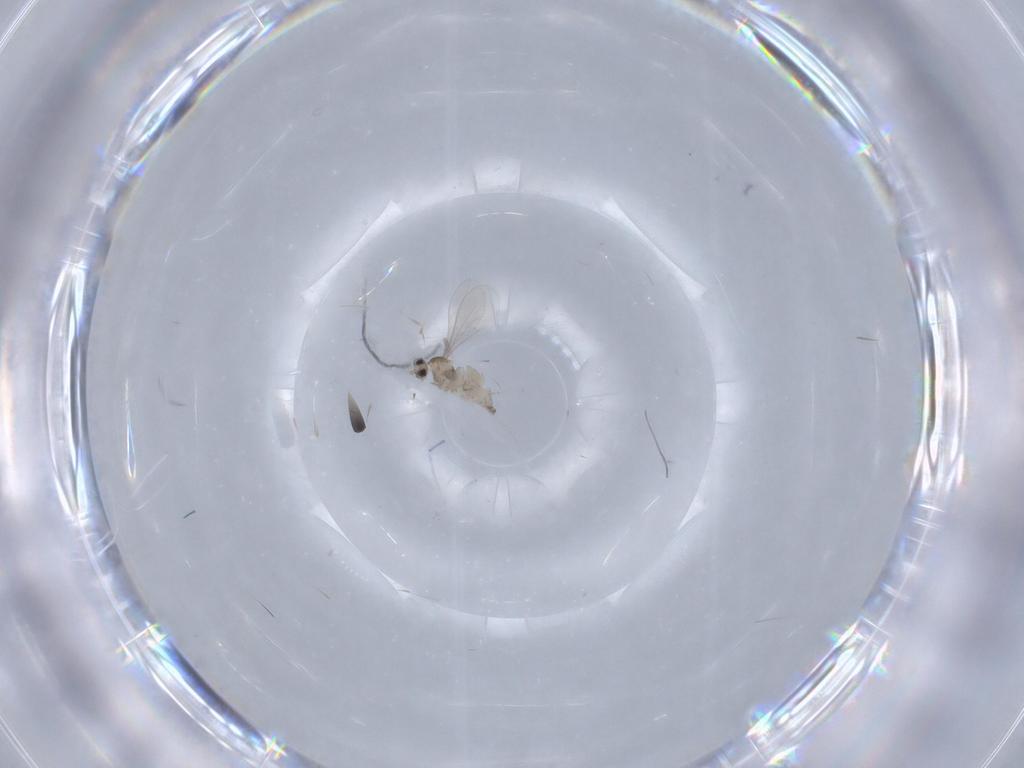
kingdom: Animalia
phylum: Arthropoda
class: Insecta
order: Diptera
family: Cecidomyiidae
